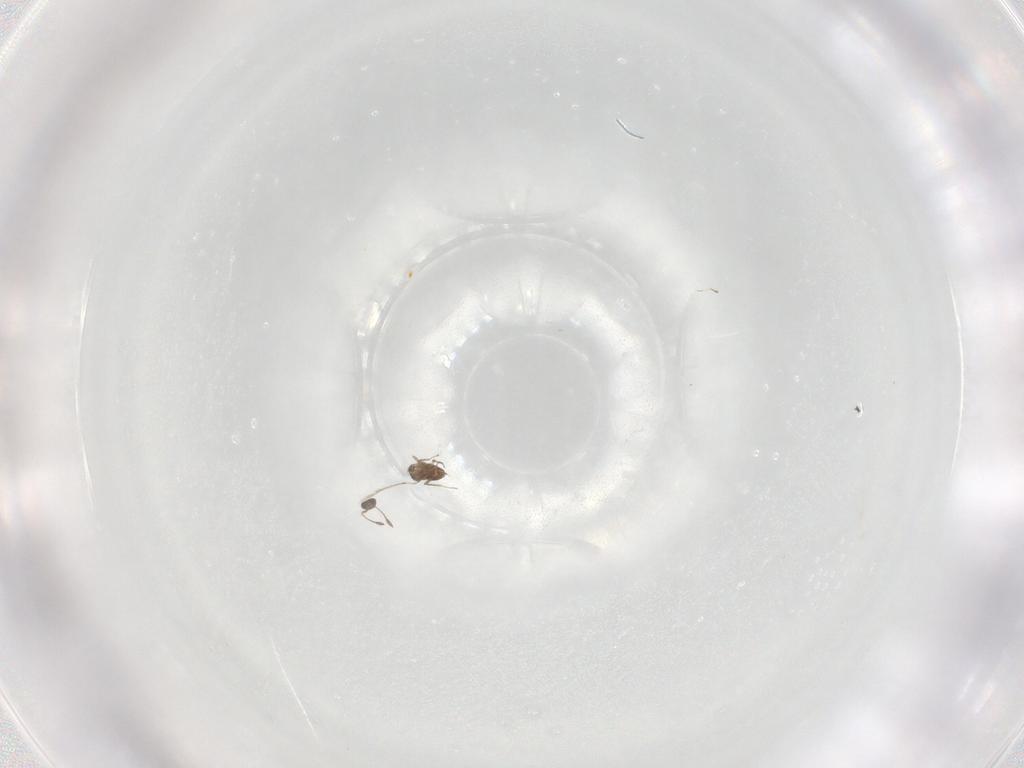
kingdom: Animalia
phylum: Arthropoda
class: Insecta
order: Hymenoptera
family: Mymaridae
